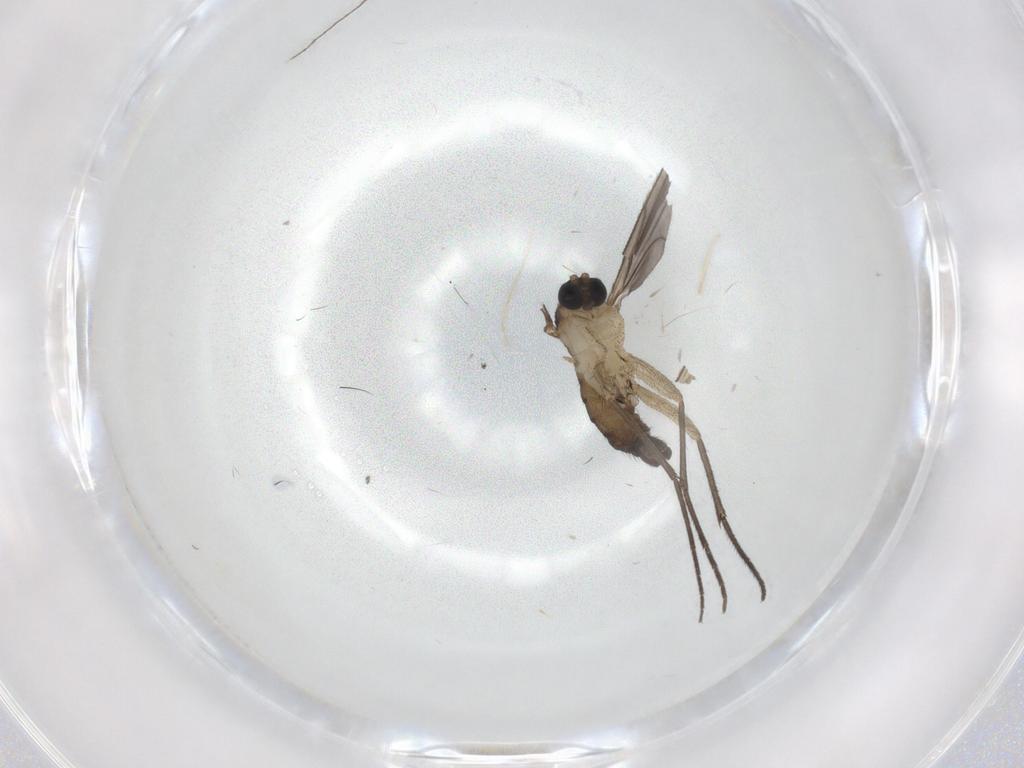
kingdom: Animalia
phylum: Arthropoda
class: Insecta
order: Diptera
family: Sciaridae
